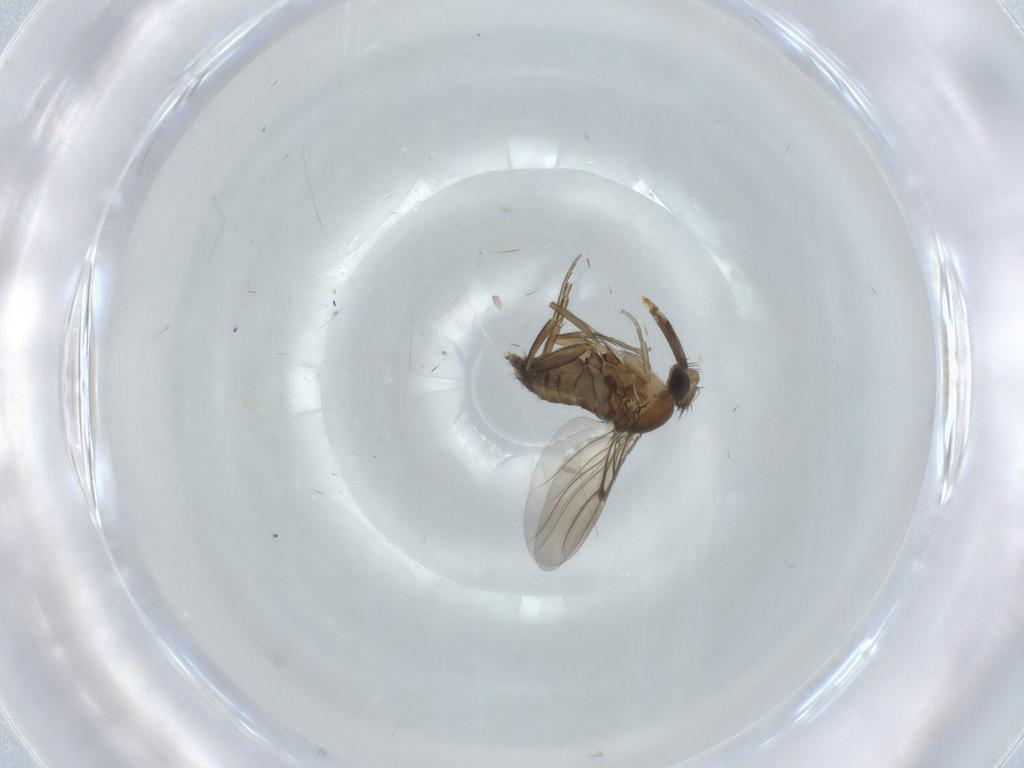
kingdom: Animalia
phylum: Arthropoda
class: Insecta
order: Diptera
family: Phoridae
